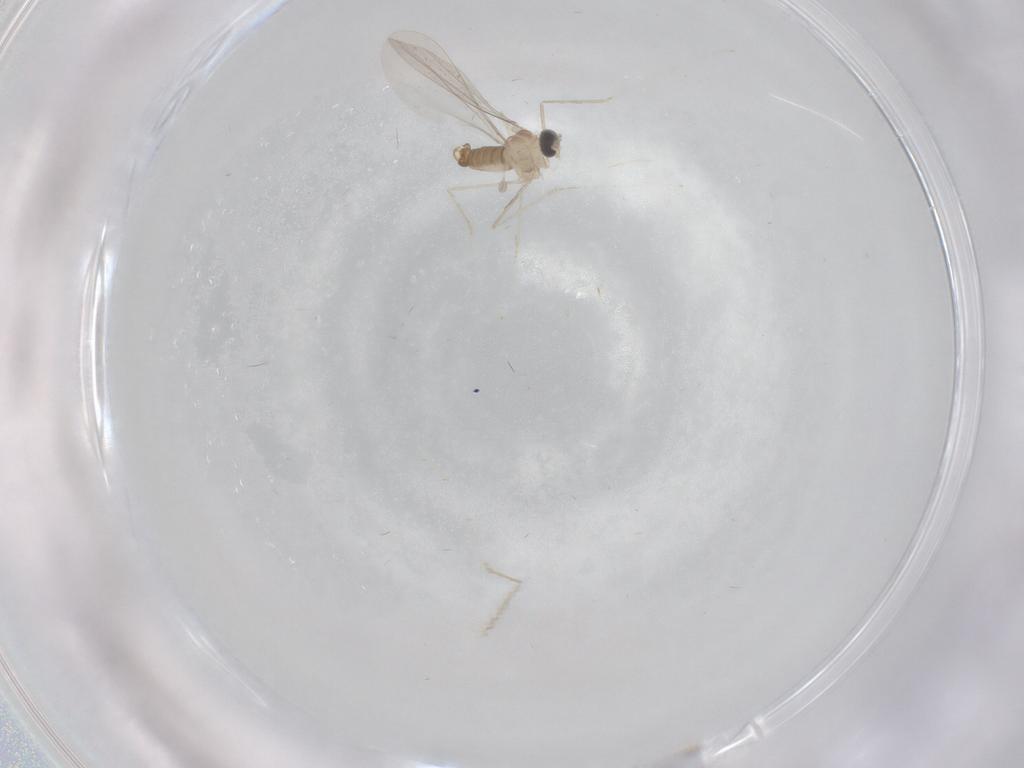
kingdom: Animalia
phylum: Arthropoda
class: Insecta
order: Diptera
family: Cecidomyiidae
